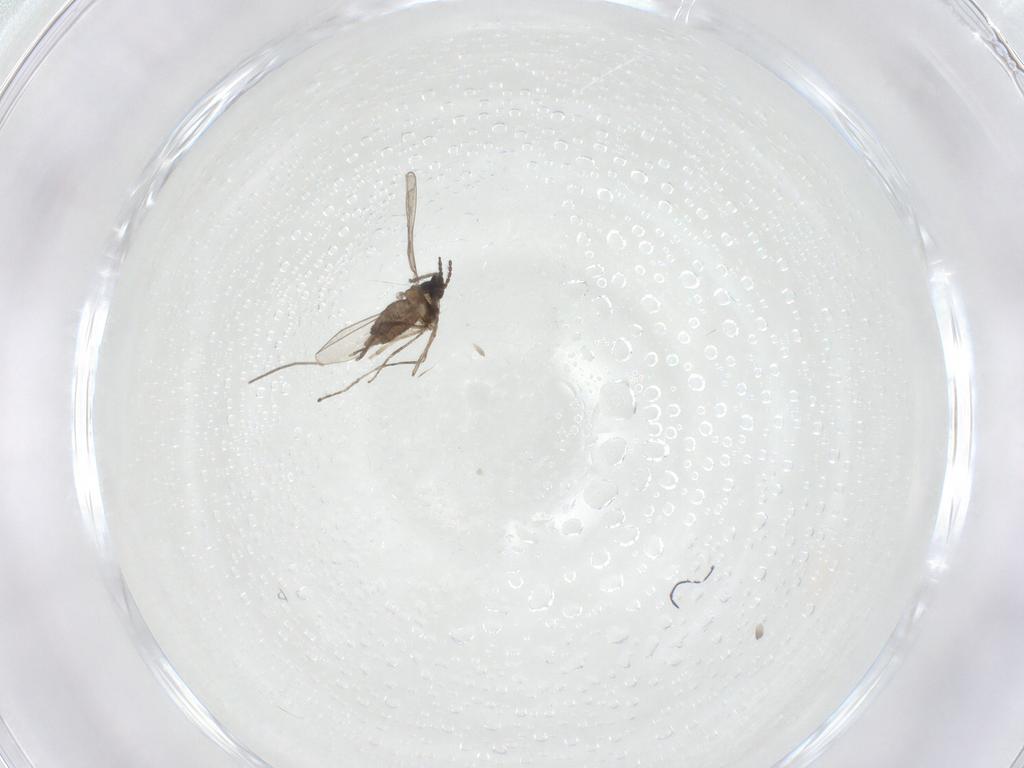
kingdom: Animalia
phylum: Arthropoda
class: Insecta
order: Diptera
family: Cecidomyiidae
